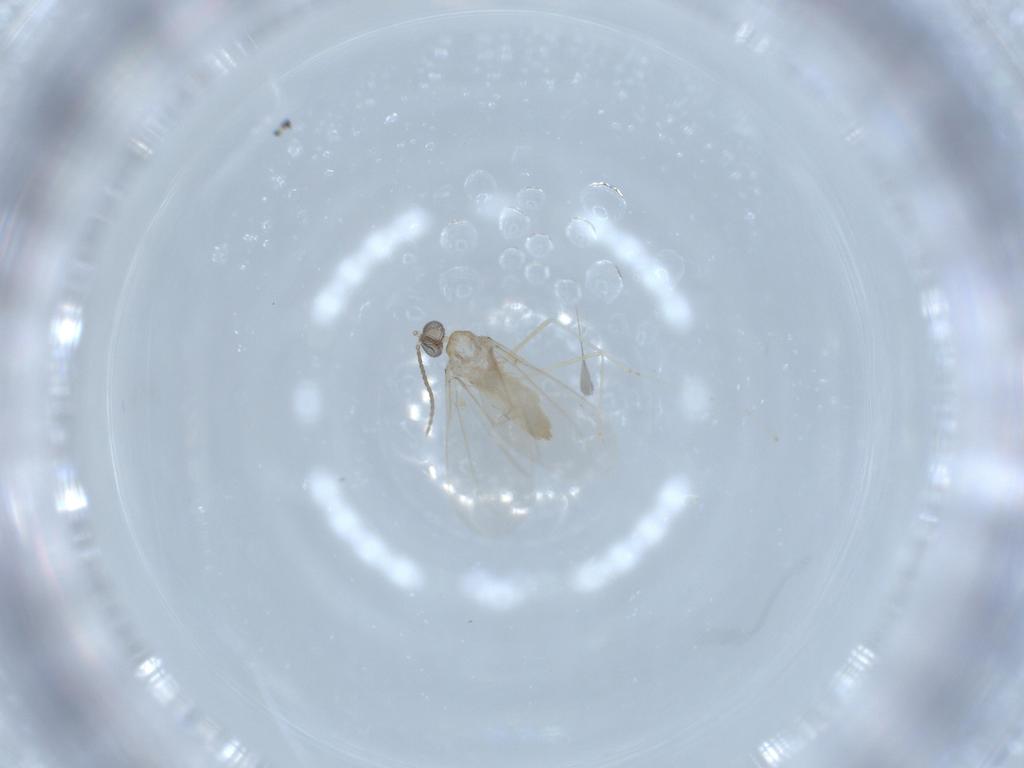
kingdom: Animalia
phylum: Arthropoda
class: Insecta
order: Diptera
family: Cecidomyiidae
